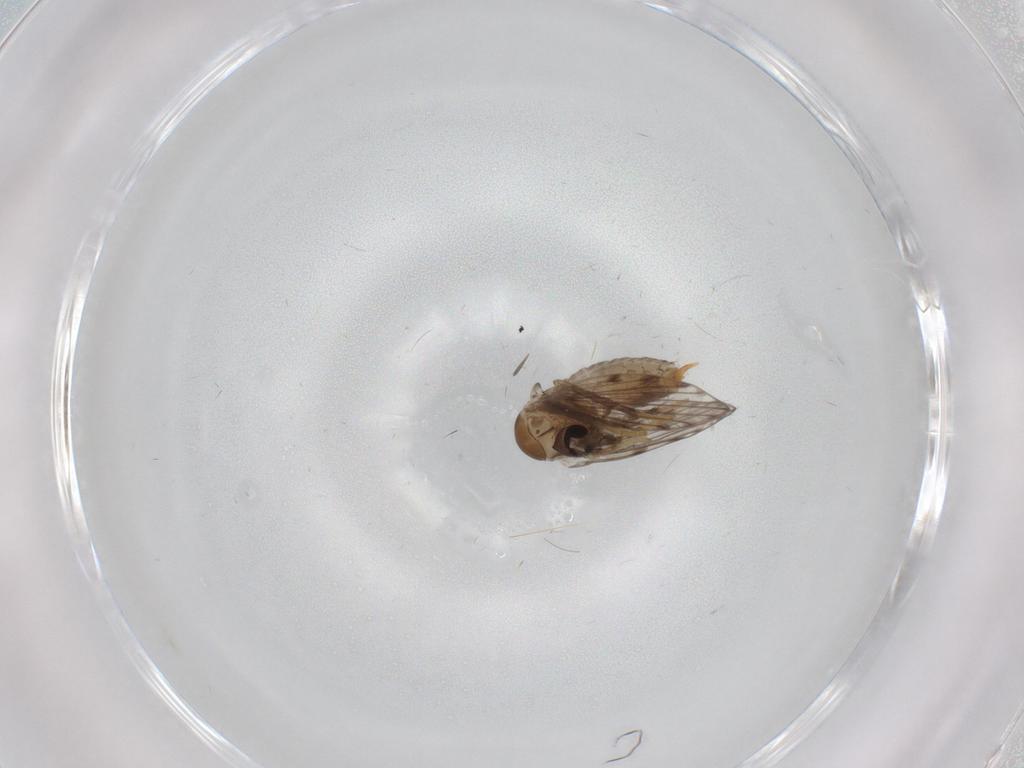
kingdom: Animalia
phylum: Arthropoda
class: Insecta
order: Diptera
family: Psychodidae
